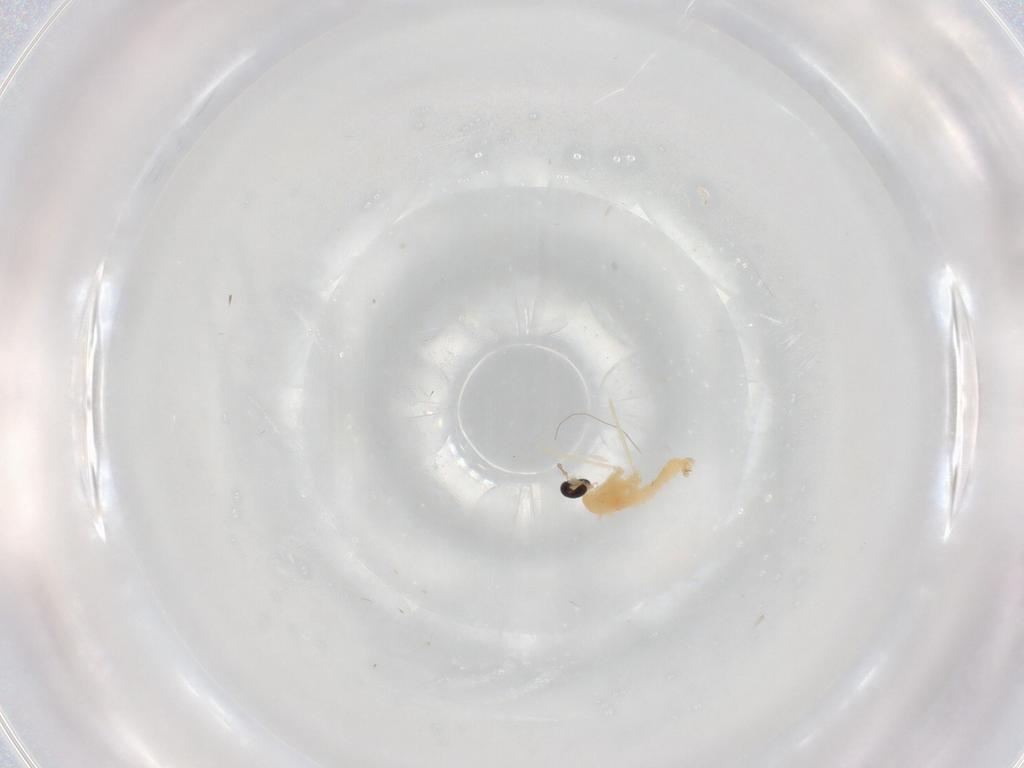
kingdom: Animalia
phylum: Arthropoda
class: Insecta
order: Diptera
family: Cecidomyiidae
